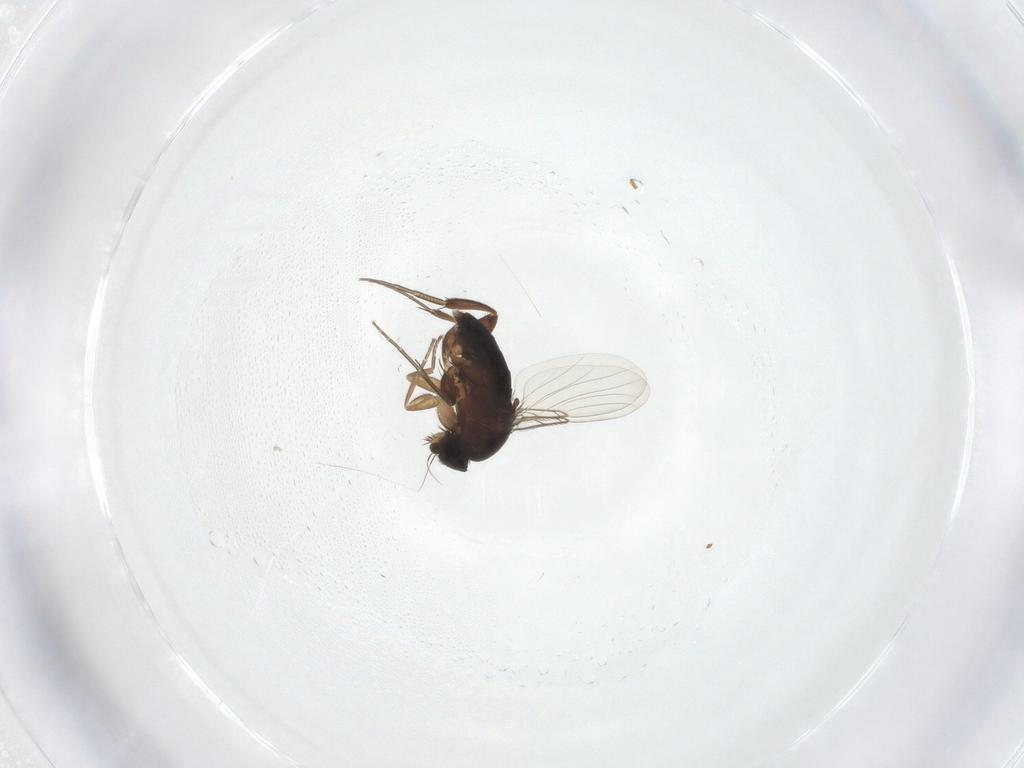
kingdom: Animalia
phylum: Arthropoda
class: Insecta
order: Diptera
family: Phoridae
